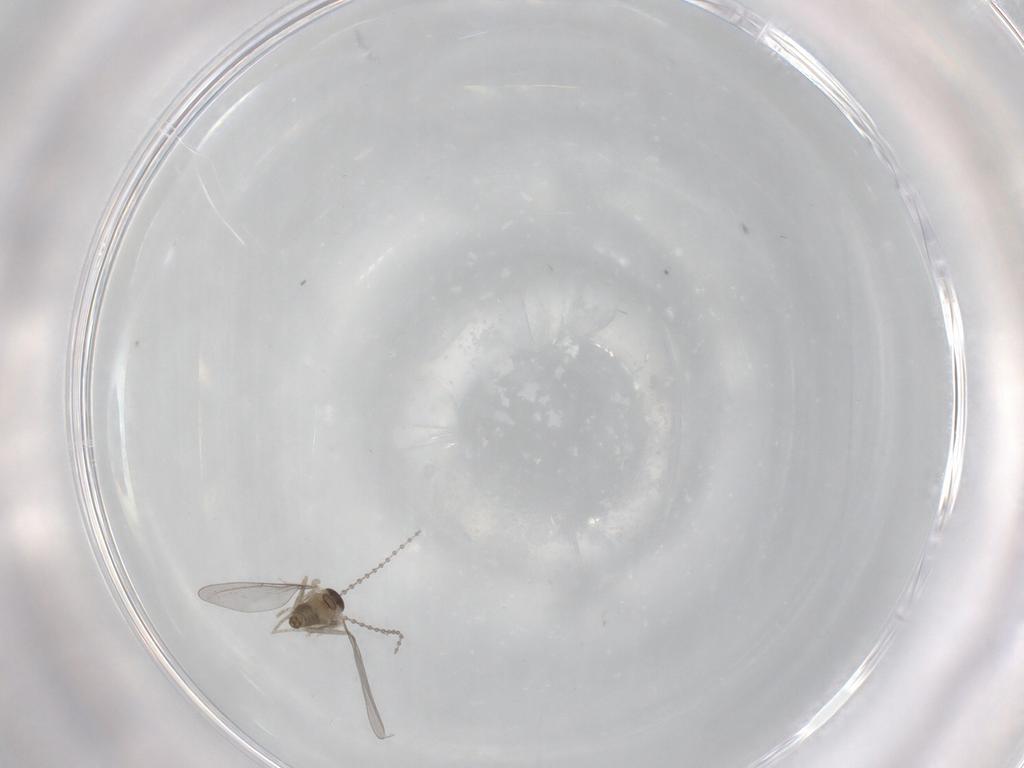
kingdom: Animalia
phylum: Arthropoda
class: Insecta
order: Diptera
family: Cecidomyiidae
